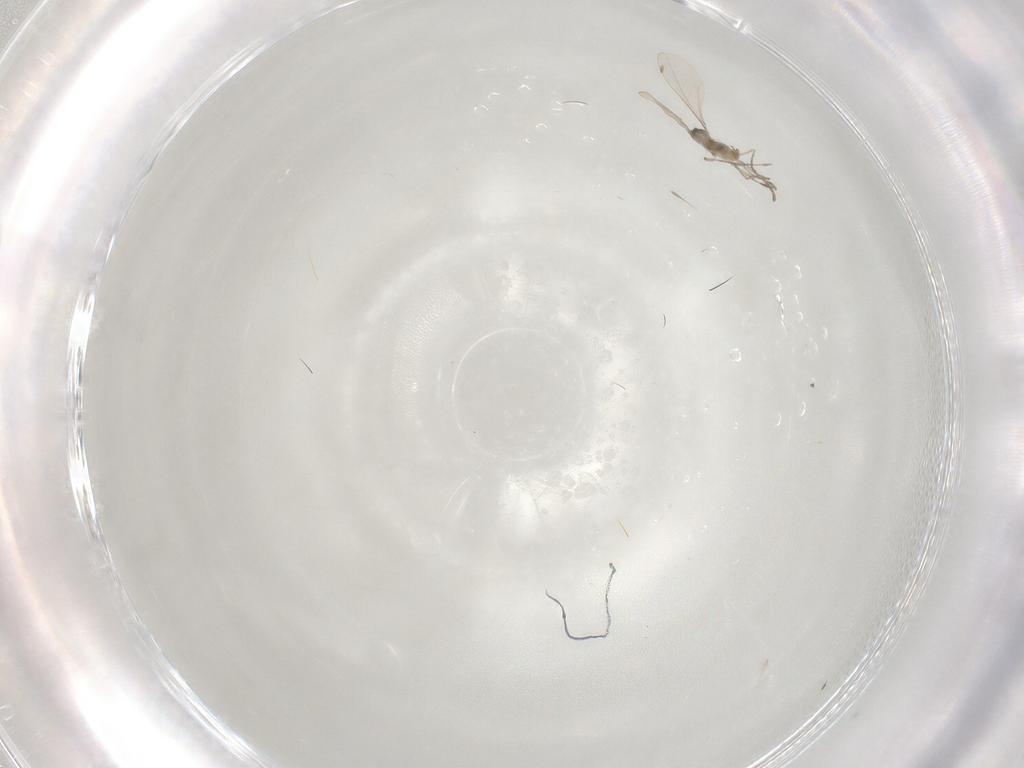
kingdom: Animalia
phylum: Arthropoda
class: Insecta
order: Diptera
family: Cecidomyiidae
